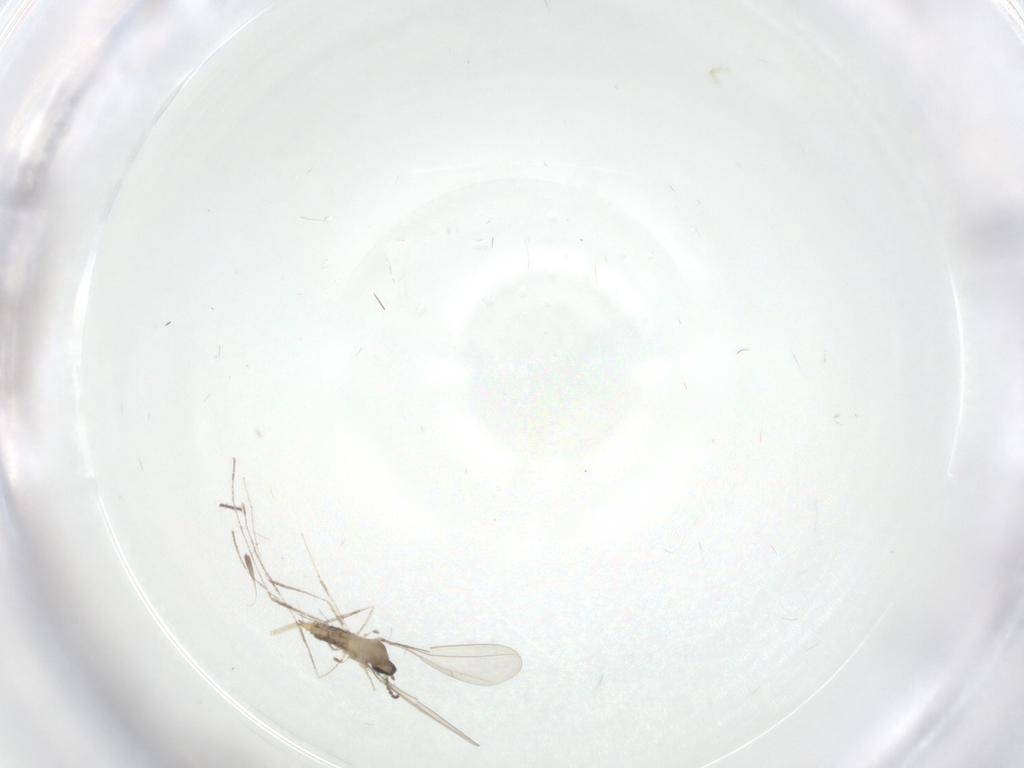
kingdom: Animalia
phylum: Arthropoda
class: Insecta
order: Diptera
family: Cecidomyiidae
